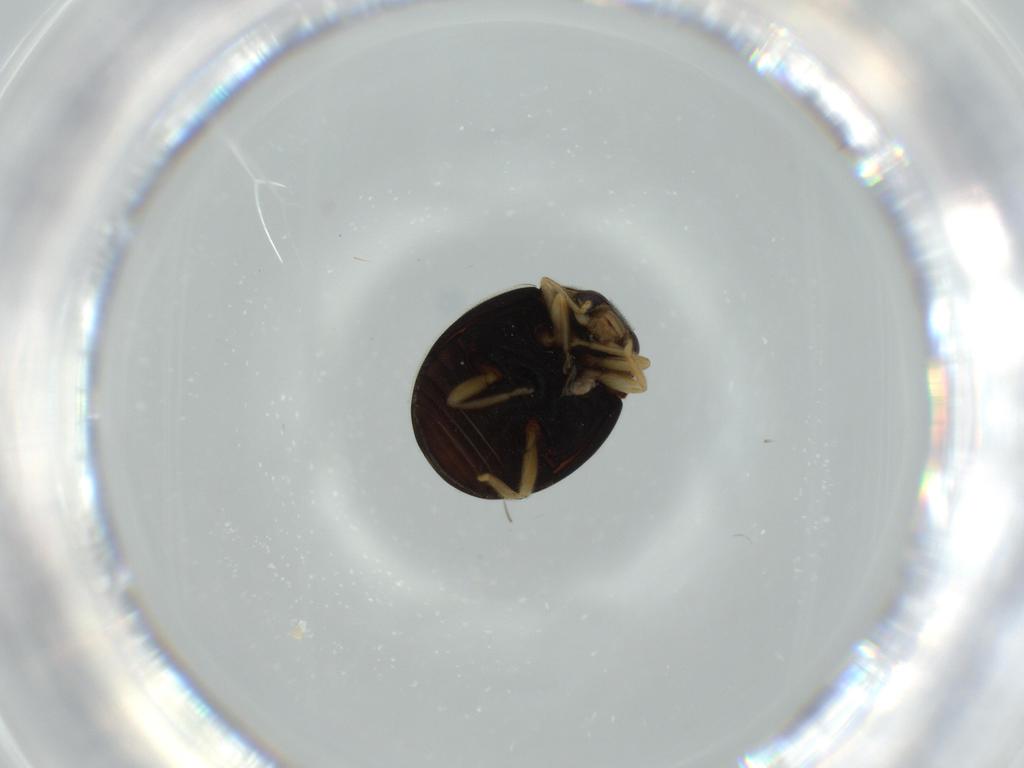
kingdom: Animalia
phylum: Arthropoda
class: Insecta
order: Coleoptera
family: Coccinellidae
